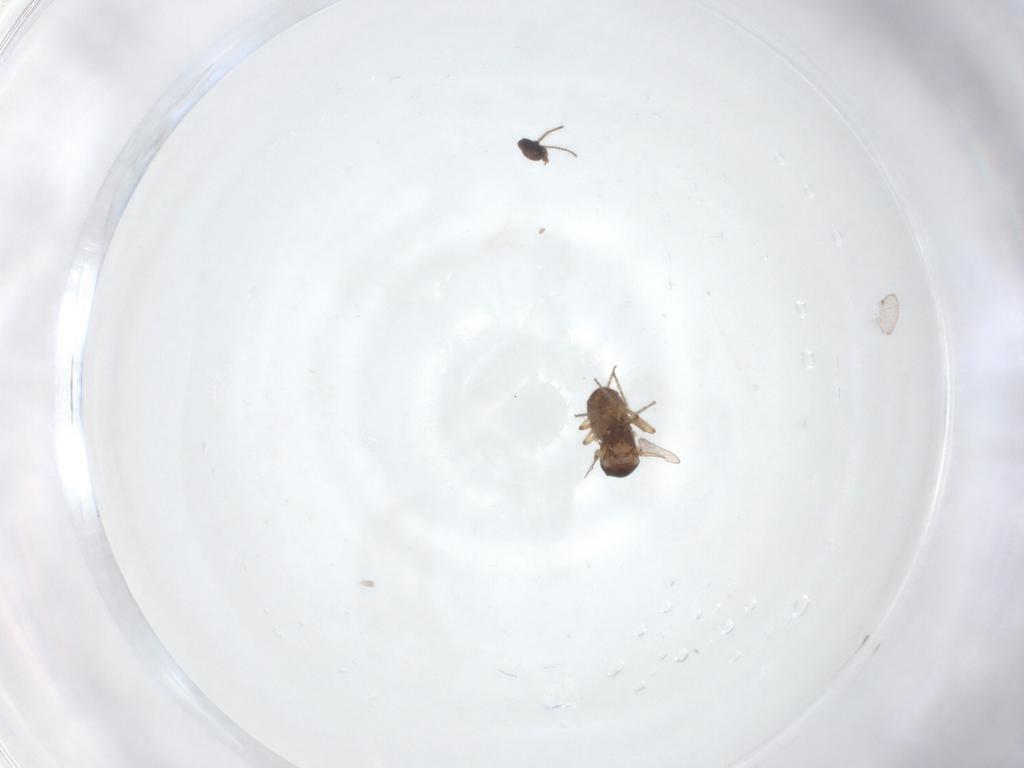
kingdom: Animalia
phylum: Arthropoda
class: Insecta
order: Diptera
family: Ceratopogonidae
